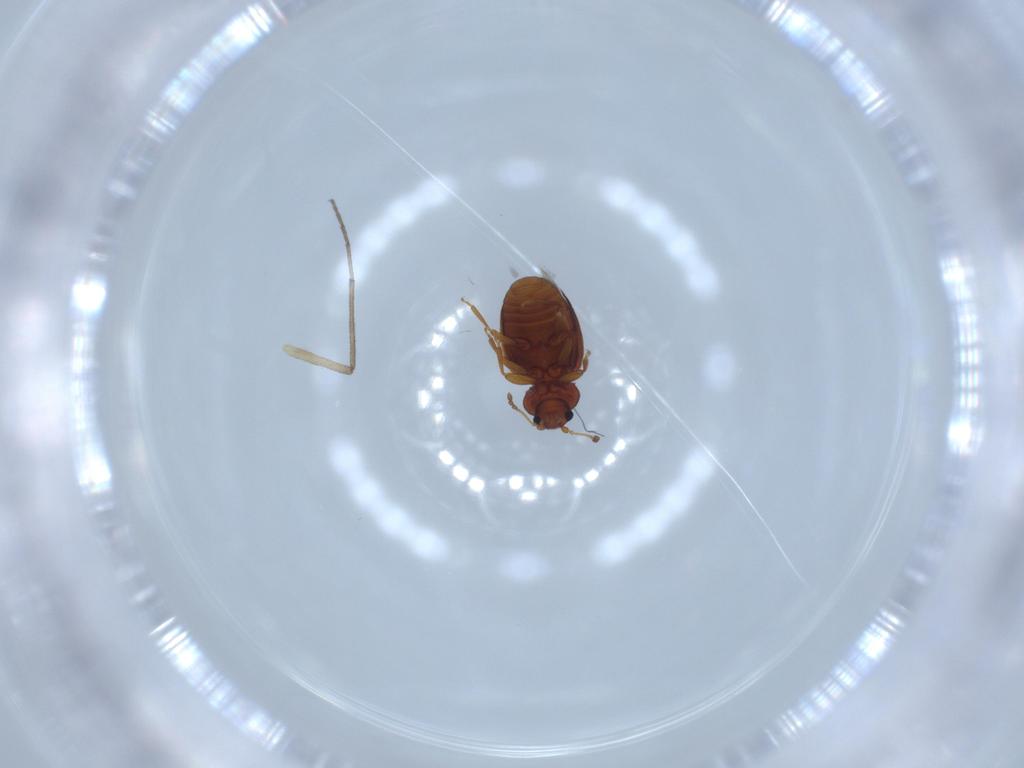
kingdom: Animalia
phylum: Arthropoda
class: Insecta
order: Coleoptera
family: Latridiidae
